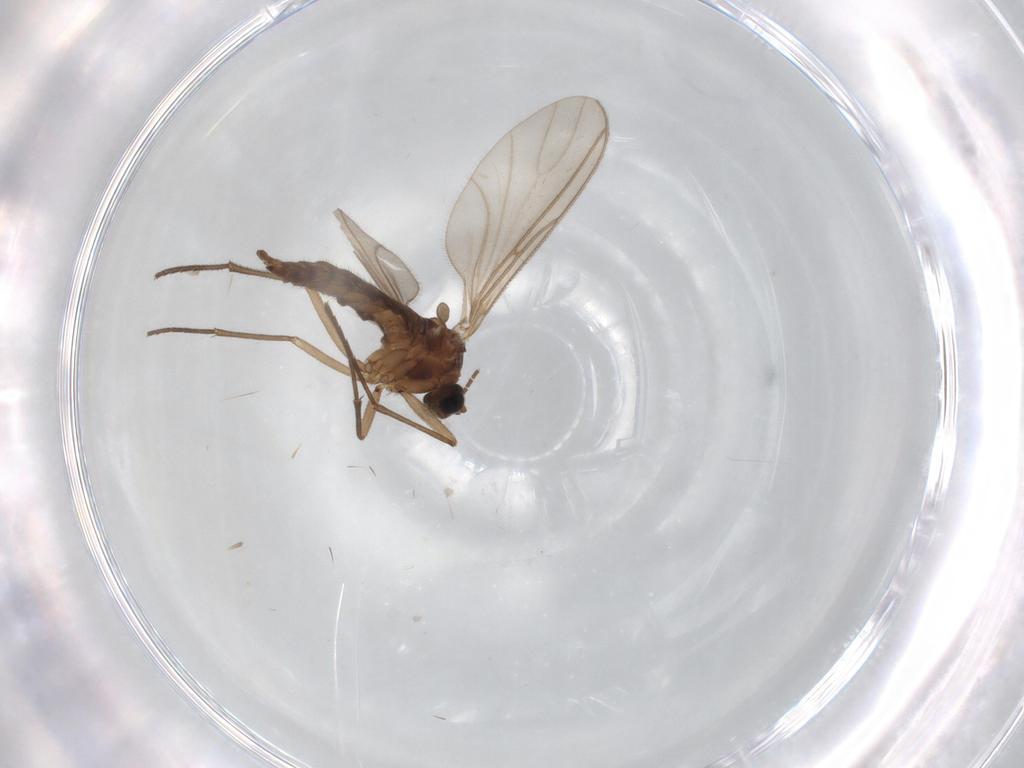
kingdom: Animalia
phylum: Arthropoda
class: Insecta
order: Diptera
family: Sciaridae
